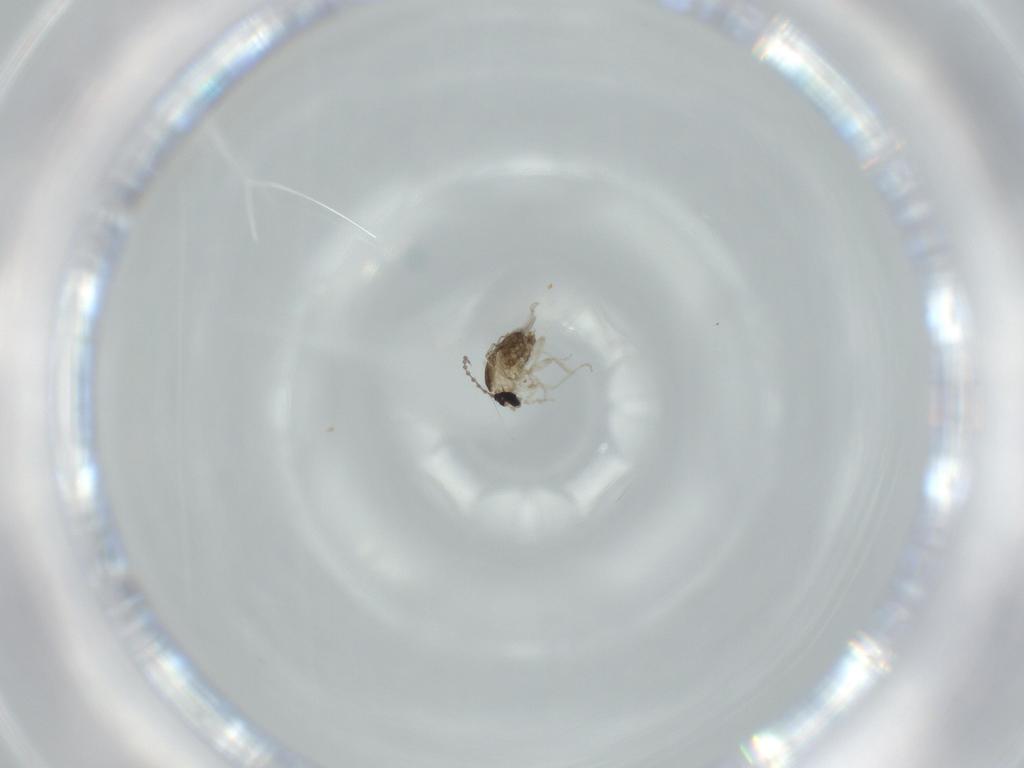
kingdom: Animalia
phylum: Arthropoda
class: Insecta
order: Diptera
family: Cecidomyiidae
